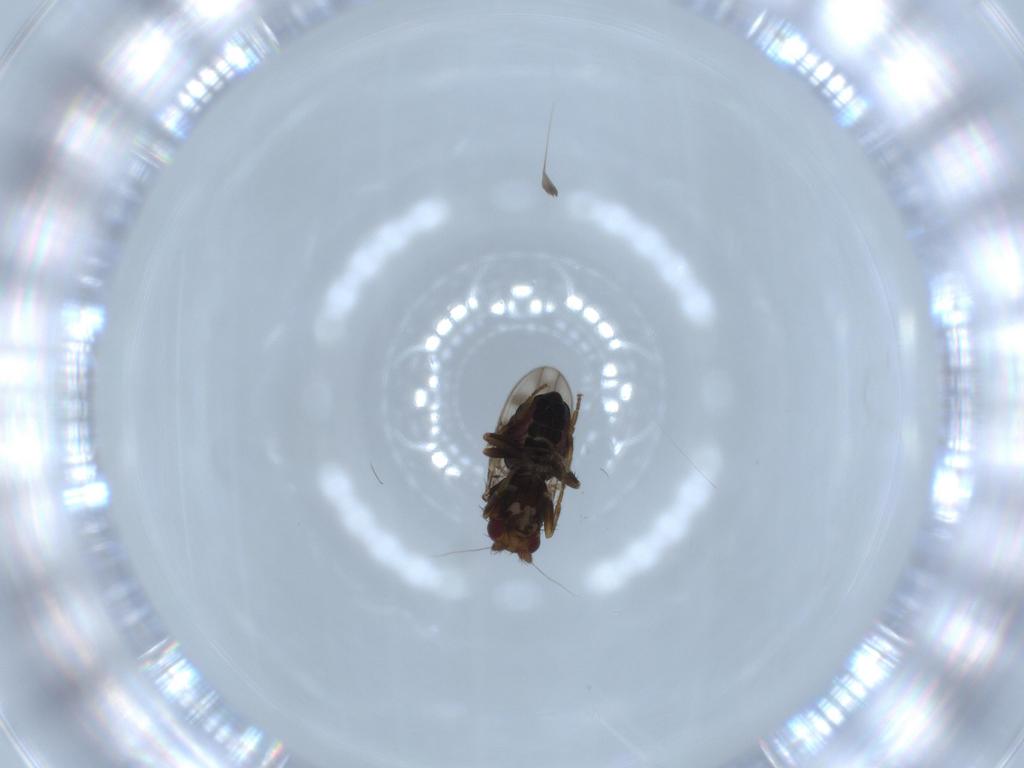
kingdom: Animalia
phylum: Arthropoda
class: Insecta
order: Diptera
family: Sphaeroceridae
